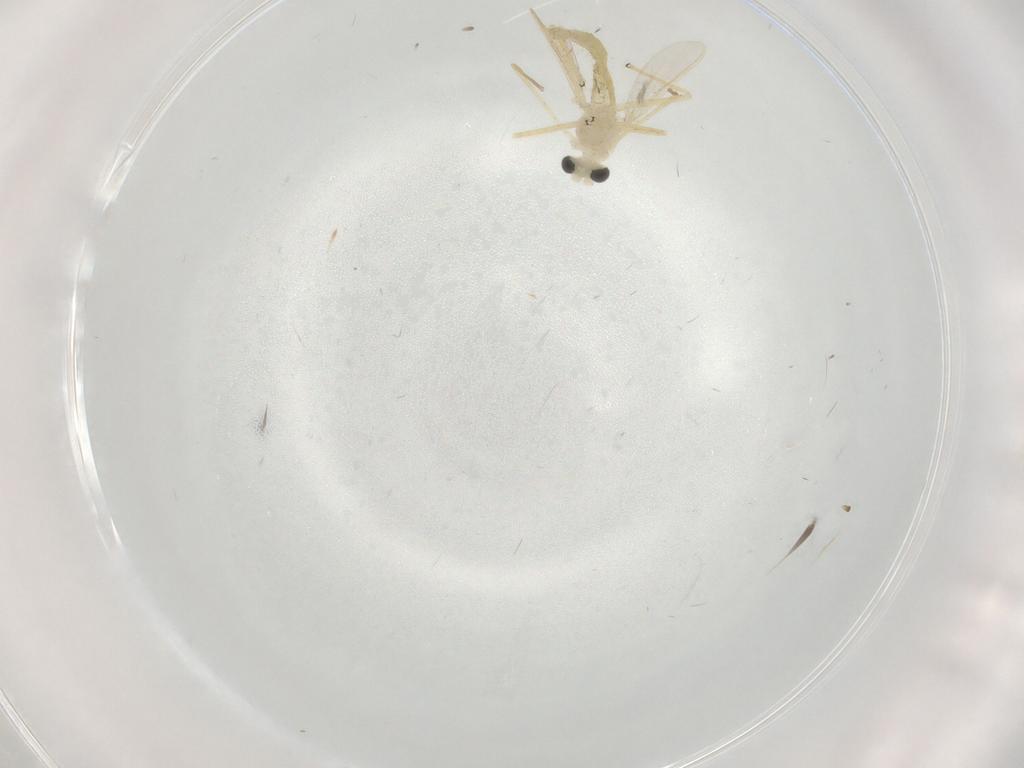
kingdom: Animalia
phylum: Arthropoda
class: Insecta
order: Diptera
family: Chironomidae
